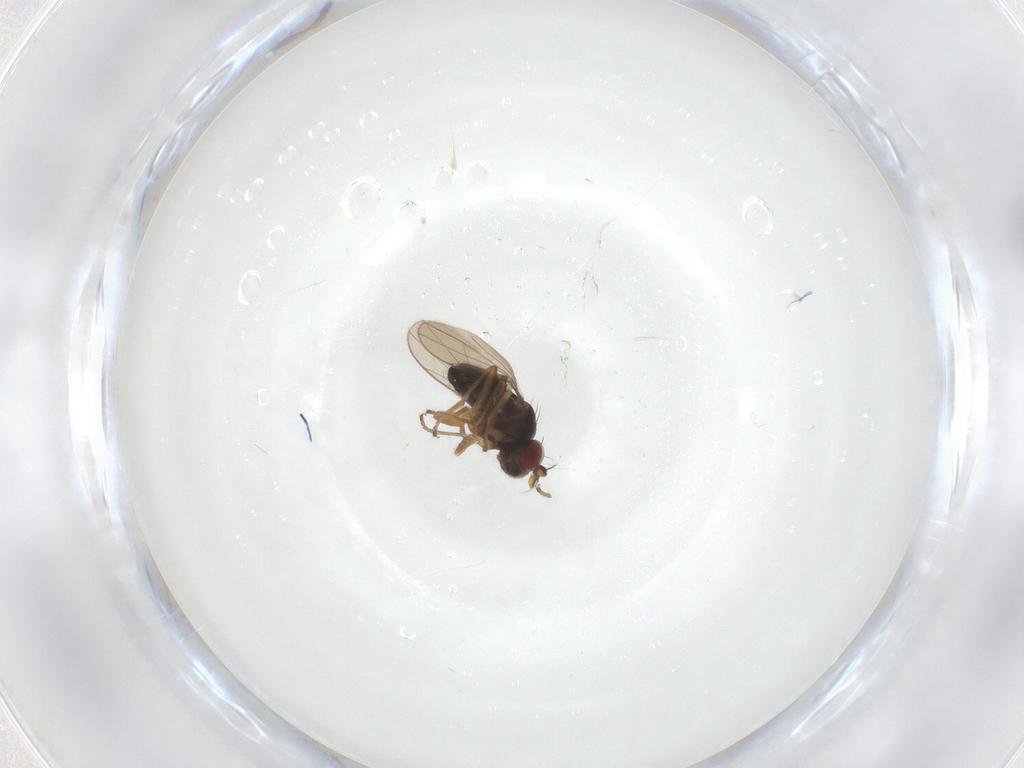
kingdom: Animalia
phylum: Arthropoda
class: Insecta
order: Diptera
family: Ephydridae
